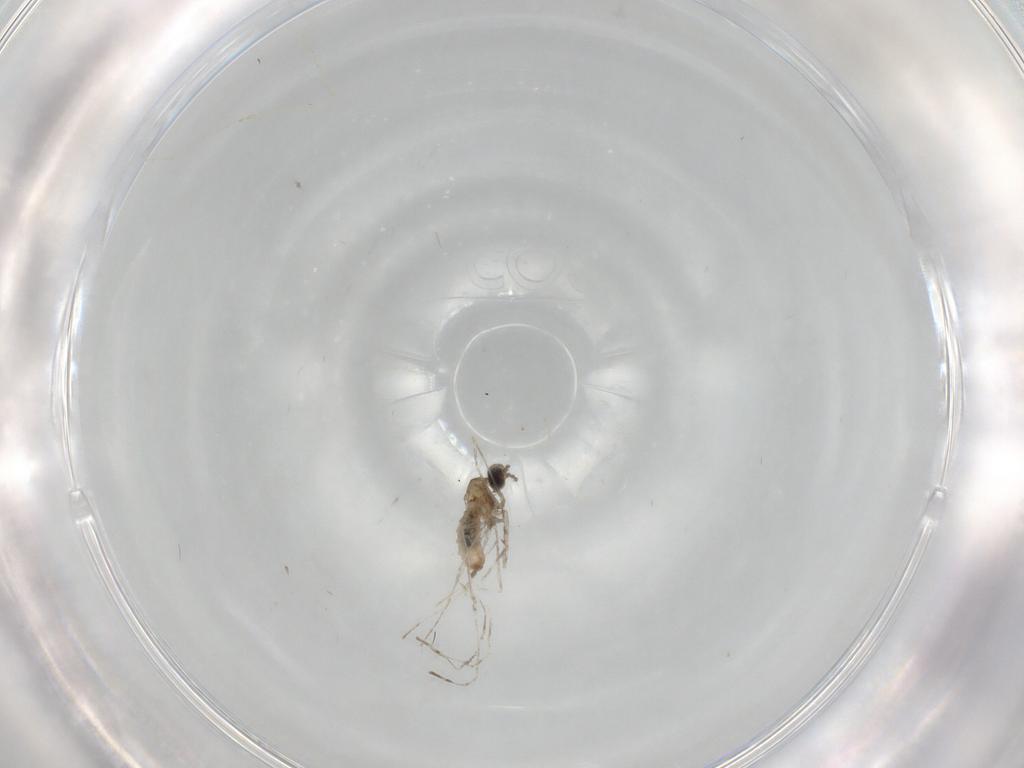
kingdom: Animalia
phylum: Arthropoda
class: Insecta
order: Diptera
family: Cecidomyiidae
